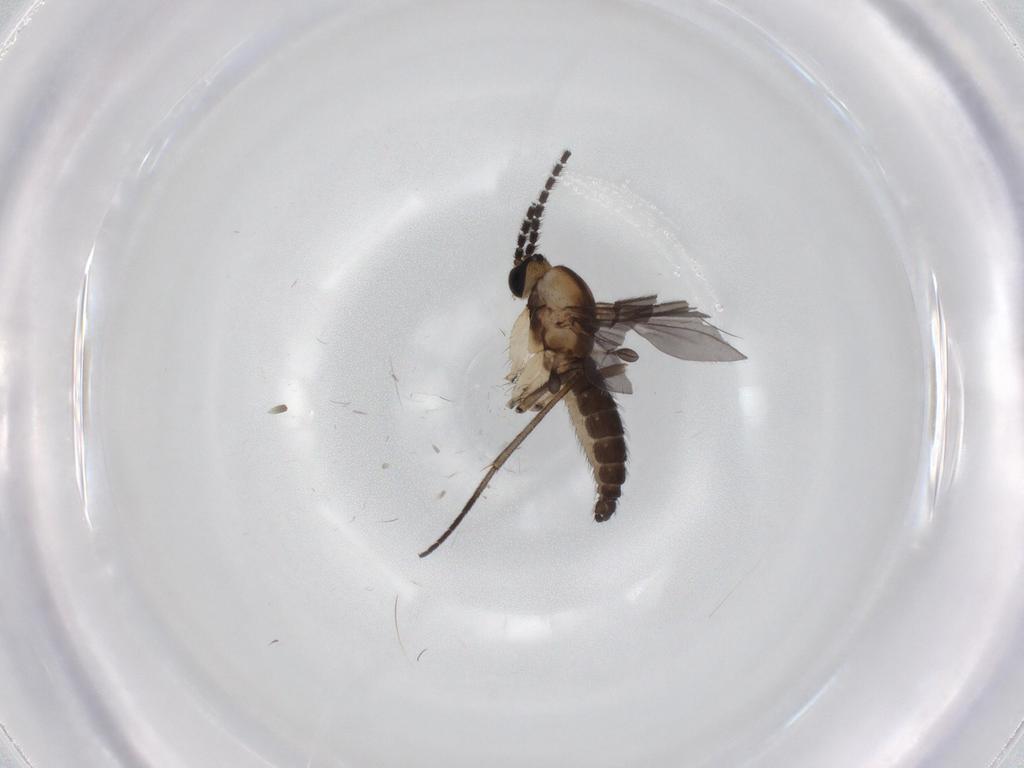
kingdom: Animalia
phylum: Arthropoda
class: Insecta
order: Diptera
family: Sciaridae
